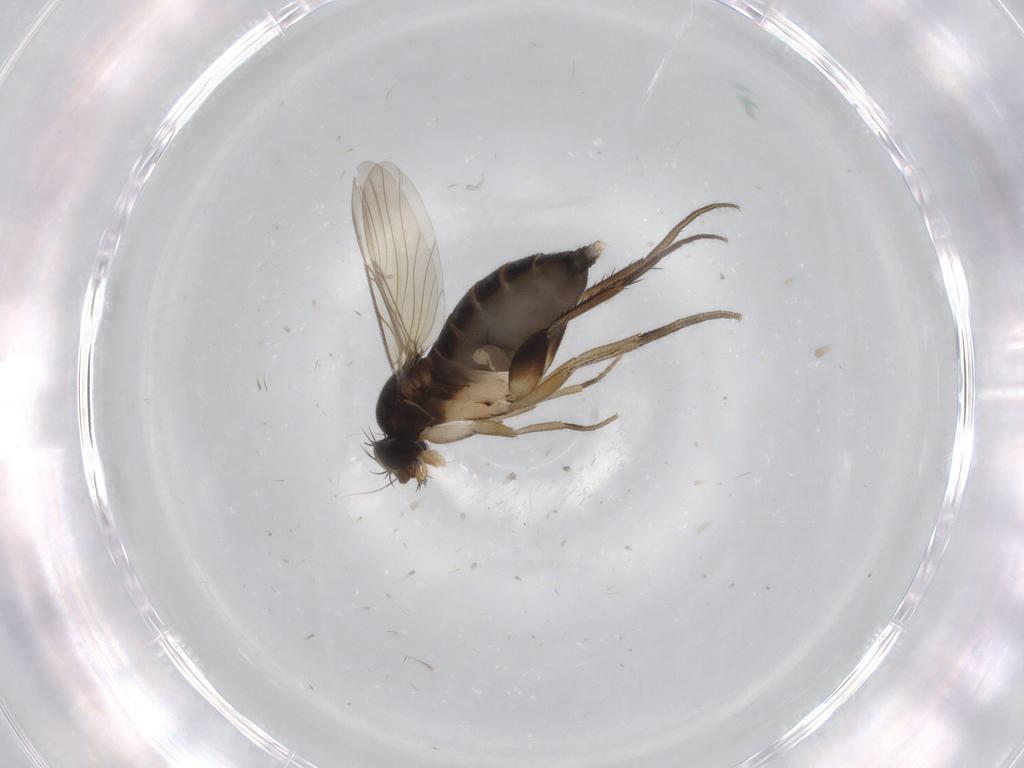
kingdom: Animalia
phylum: Arthropoda
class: Insecta
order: Diptera
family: Phoridae
